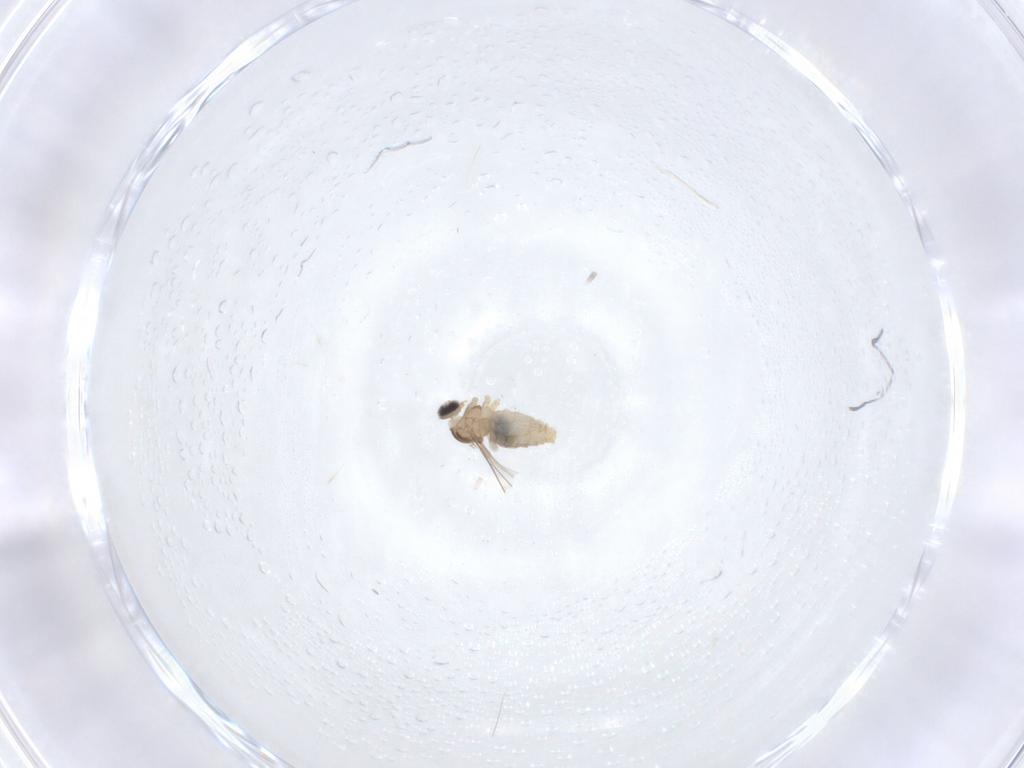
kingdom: Animalia
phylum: Arthropoda
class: Insecta
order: Diptera
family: Cecidomyiidae
